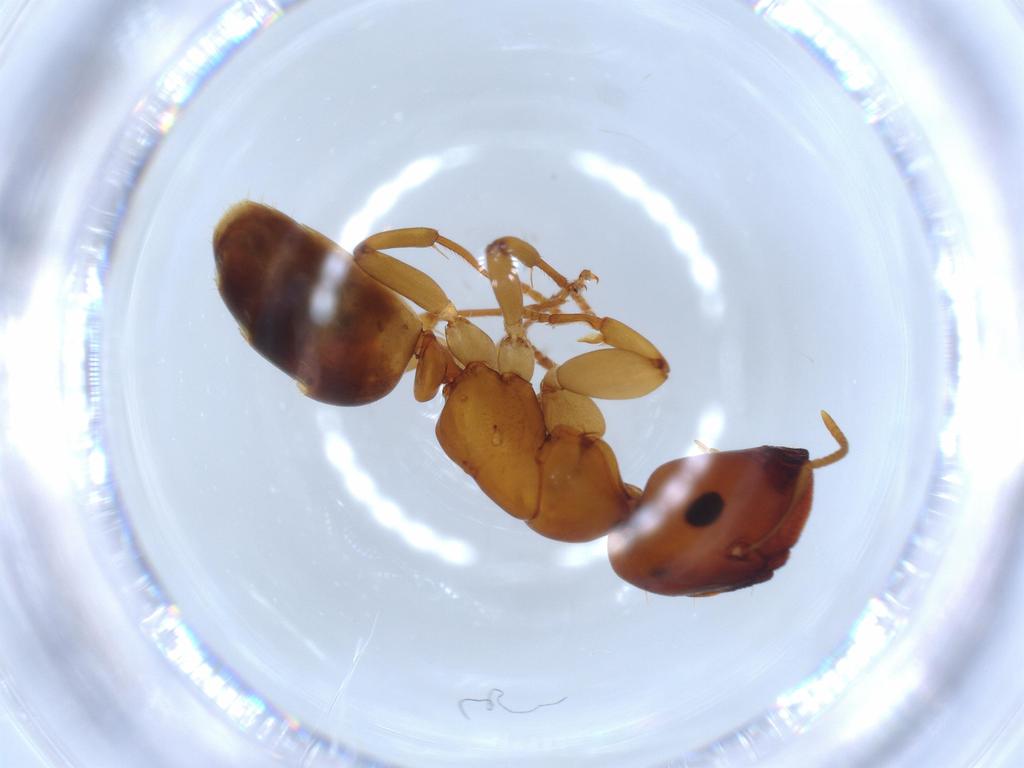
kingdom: Animalia
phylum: Arthropoda
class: Insecta
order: Hymenoptera
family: Formicidae
